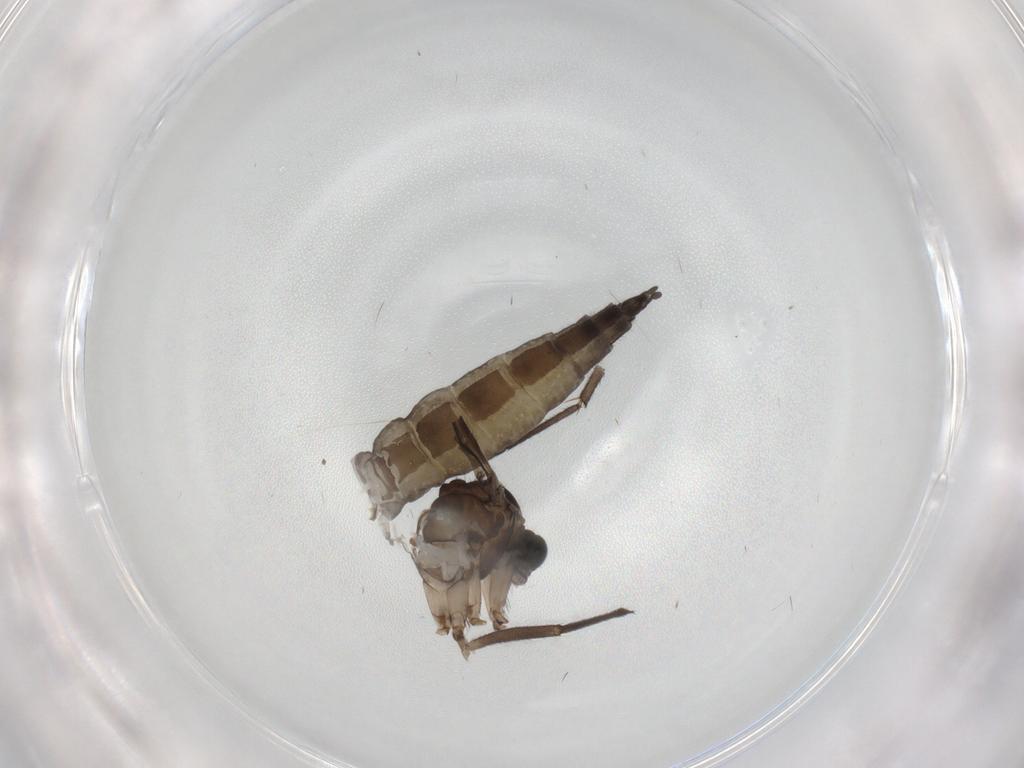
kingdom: Animalia
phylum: Arthropoda
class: Insecta
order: Diptera
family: Sciaridae
